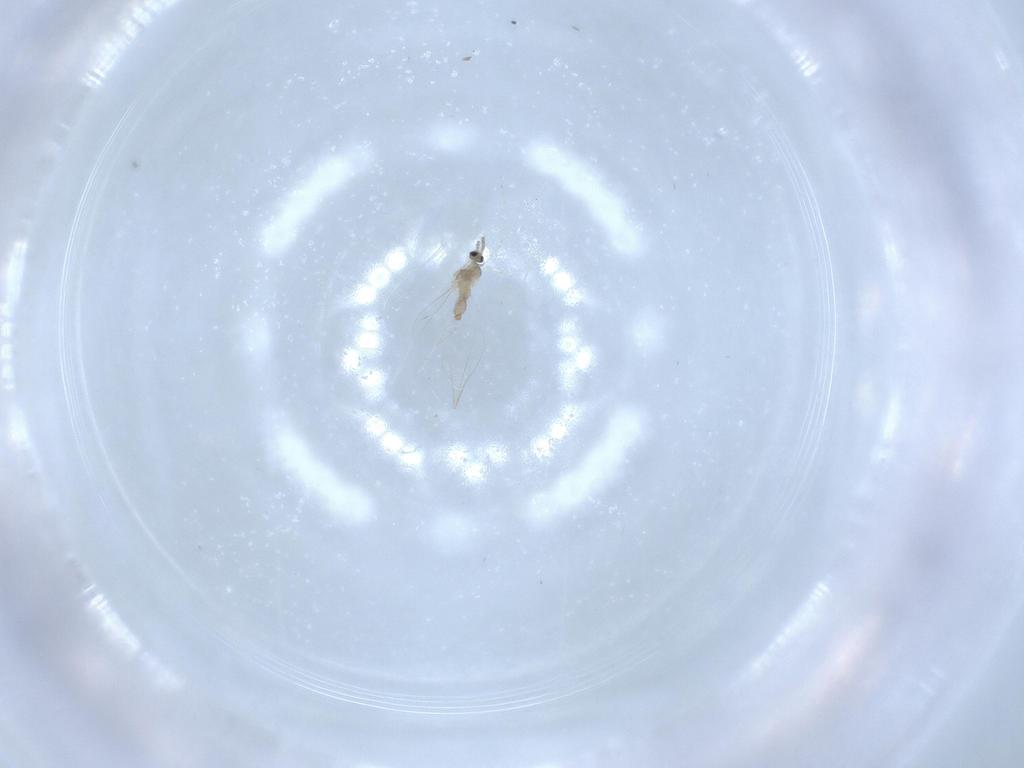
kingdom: Animalia
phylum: Arthropoda
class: Insecta
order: Diptera
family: Cecidomyiidae
